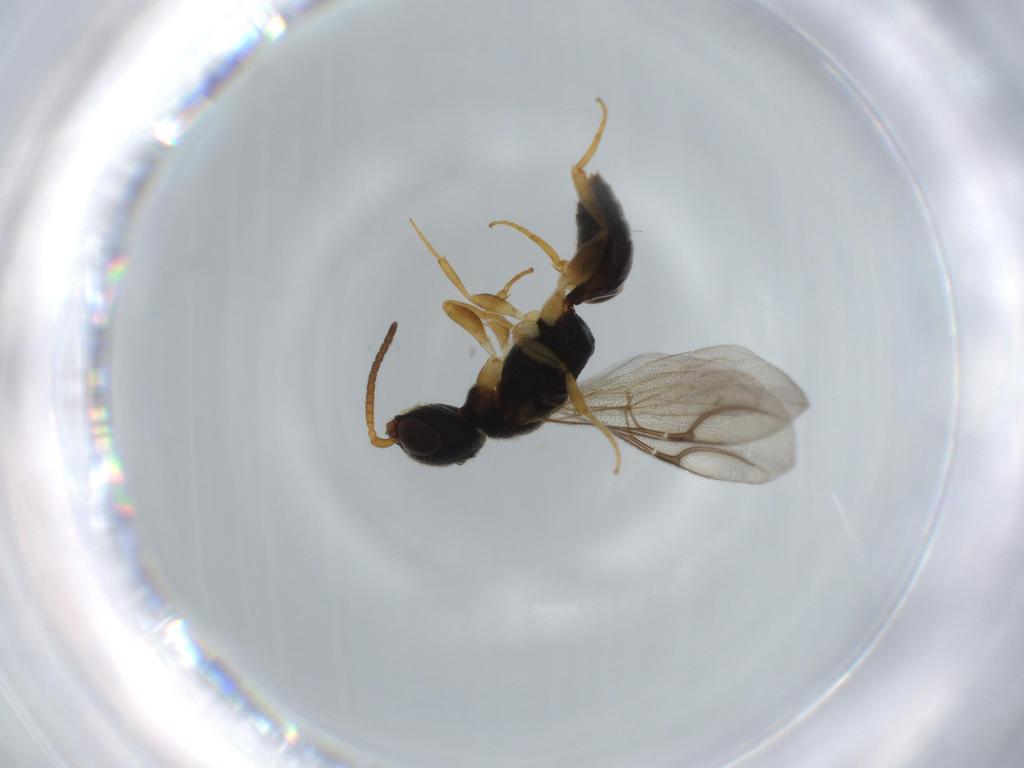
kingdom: Animalia
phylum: Arthropoda
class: Insecta
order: Hymenoptera
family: Bethylidae
